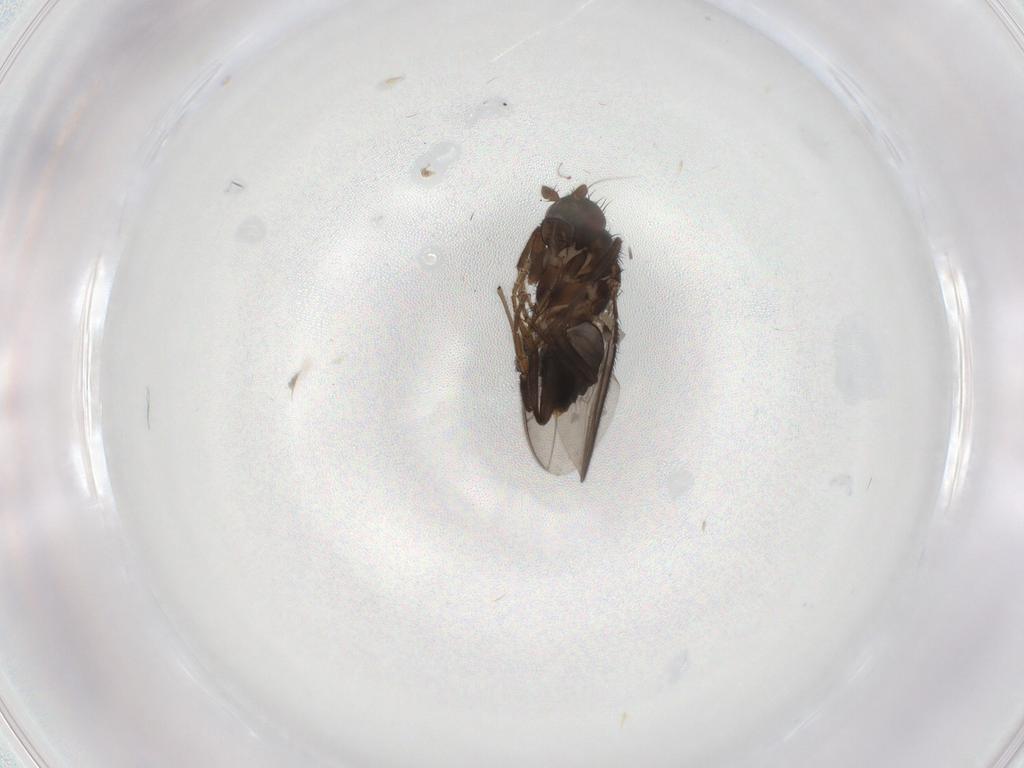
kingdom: Animalia
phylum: Arthropoda
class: Insecta
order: Diptera
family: Sphaeroceridae
